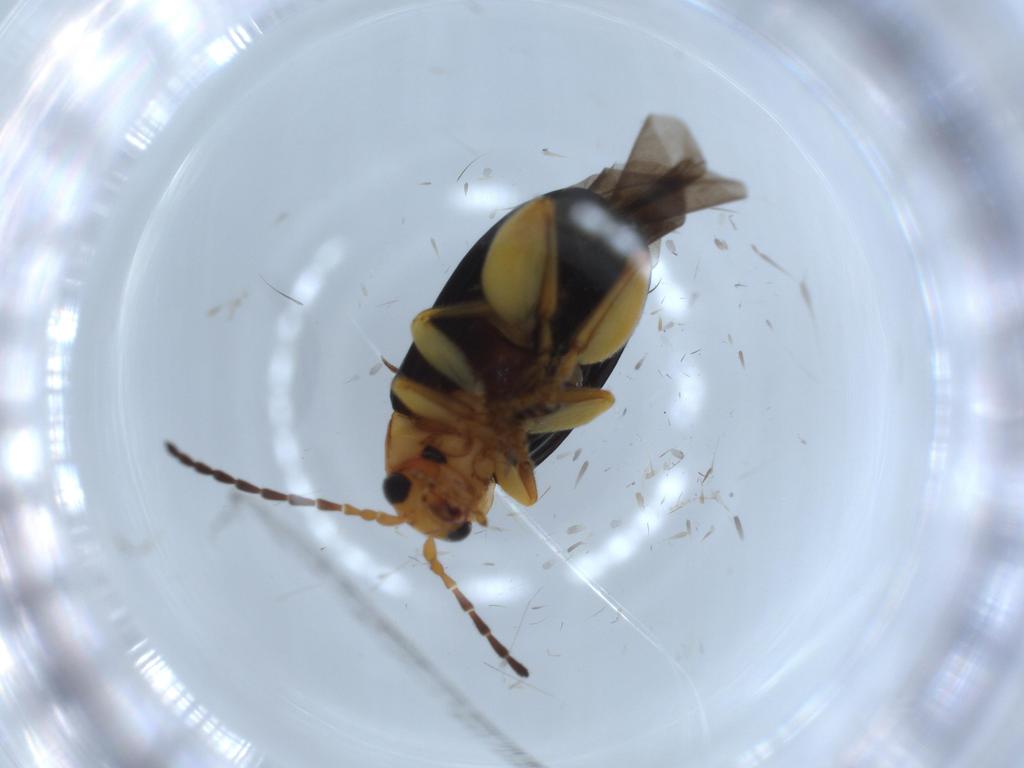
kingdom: Animalia
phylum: Arthropoda
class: Insecta
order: Coleoptera
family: Chrysomelidae
